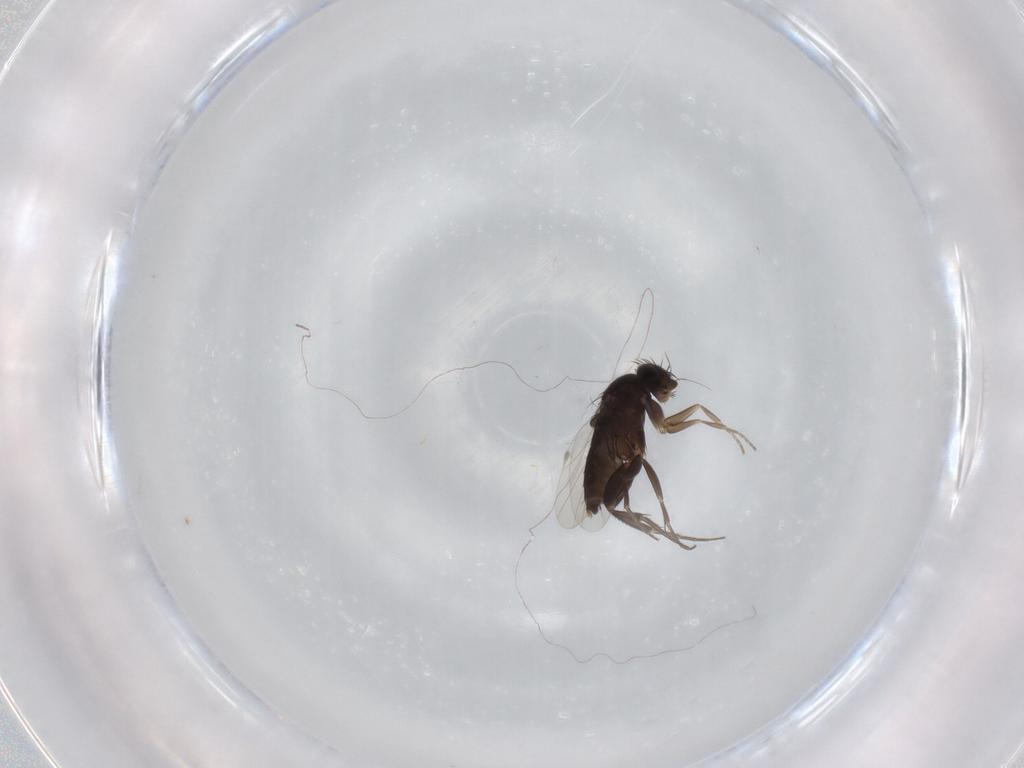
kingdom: Animalia
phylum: Arthropoda
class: Insecta
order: Diptera
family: Phoridae
